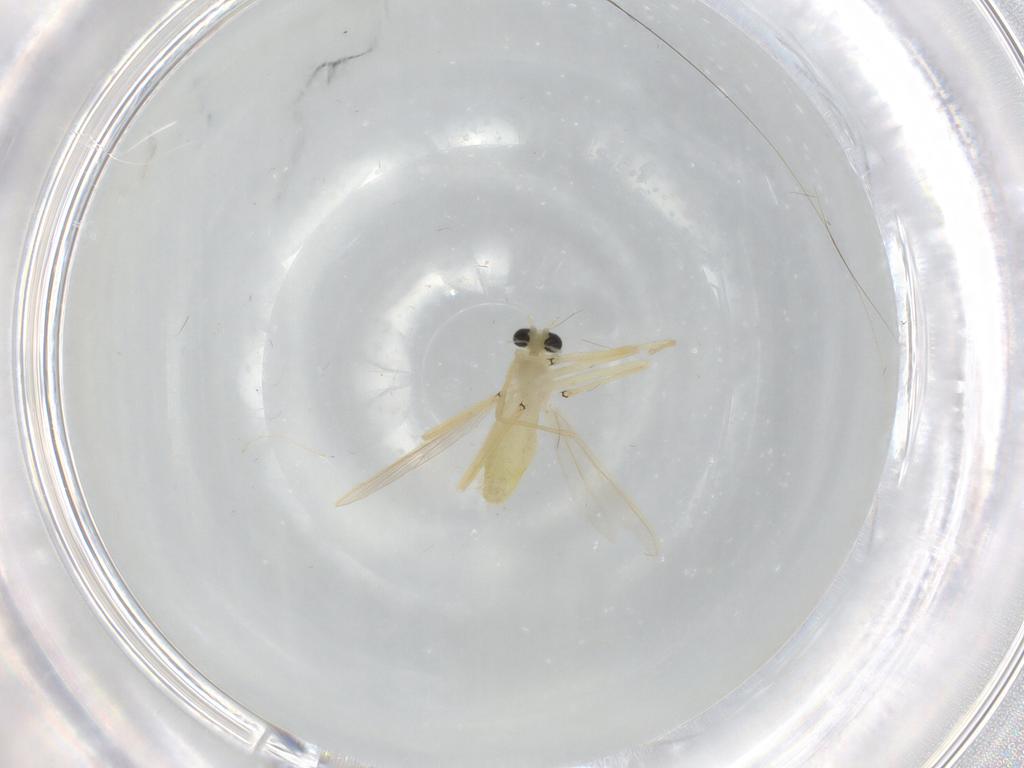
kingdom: Animalia
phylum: Arthropoda
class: Insecta
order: Diptera
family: Chironomidae
